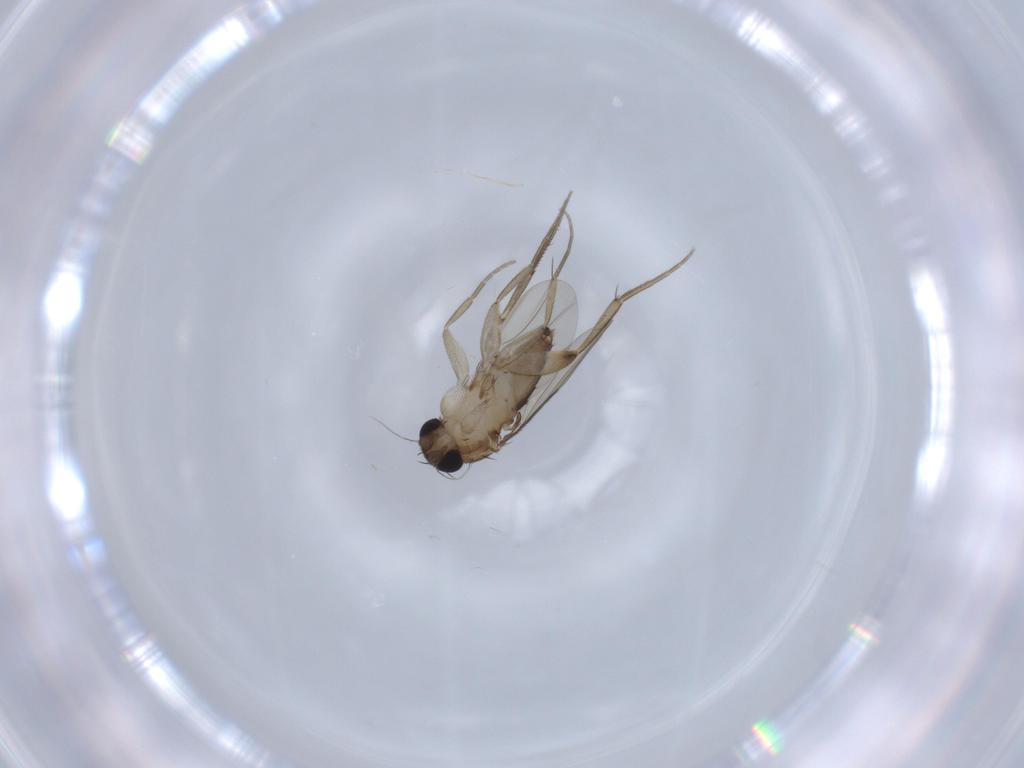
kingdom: Animalia
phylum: Arthropoda
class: Insecta
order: Diptera
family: Phoridae
